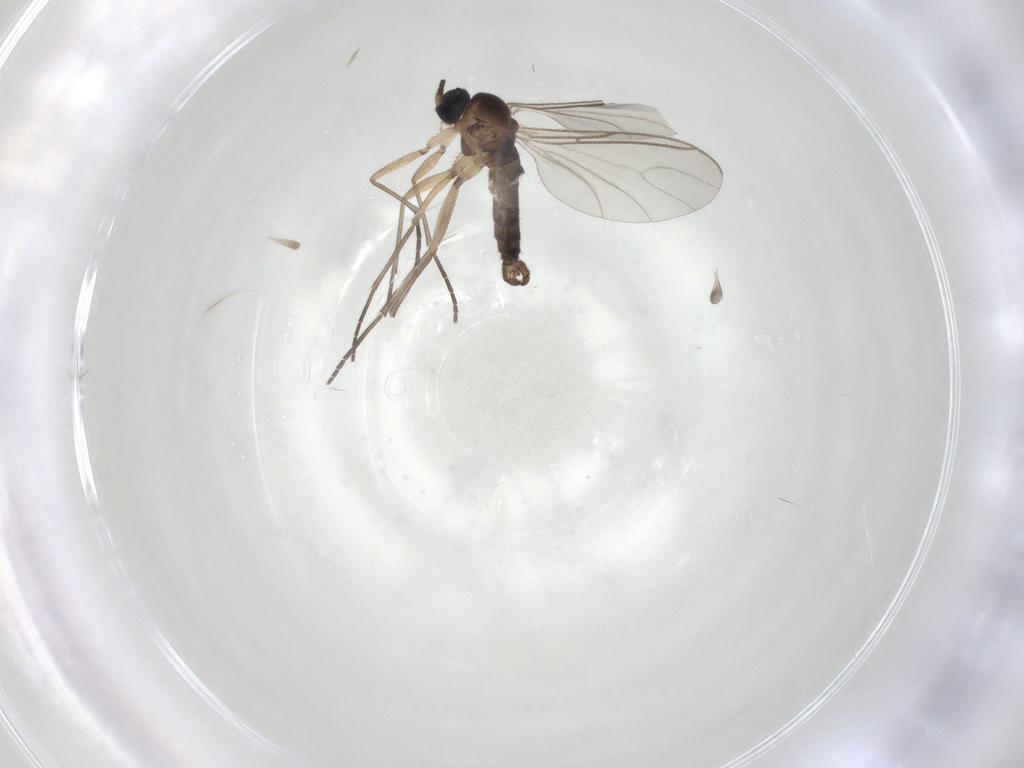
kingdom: Animalia
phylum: Arthropoda
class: Insecta
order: Diptera
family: Sciaridae
